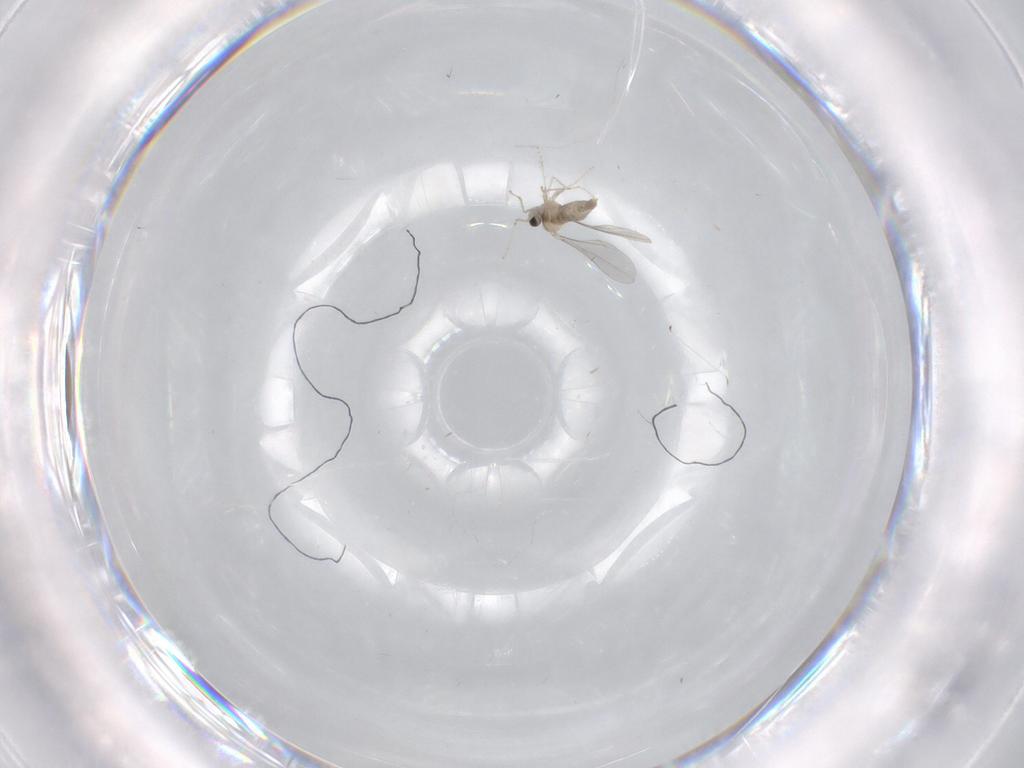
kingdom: Animalia
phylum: Arthropoda
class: Insecta
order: Diptera
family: Cecidomyiidae
